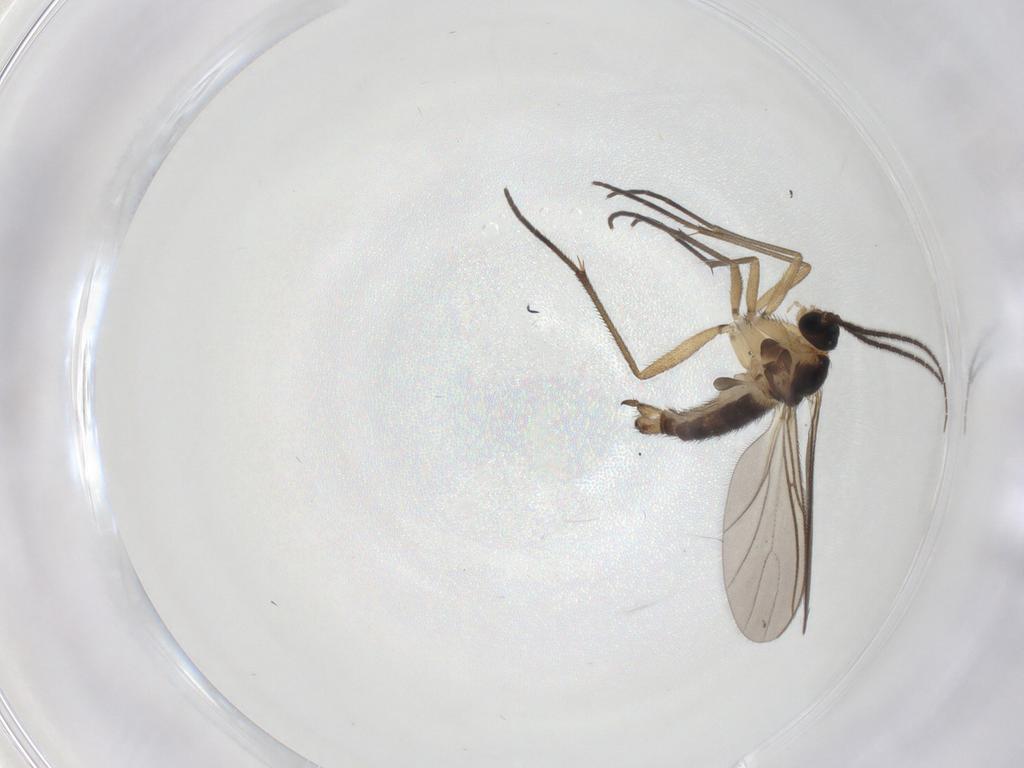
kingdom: Animalia
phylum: Arthropoda
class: Insecta
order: Diptera
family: Sciaridae
